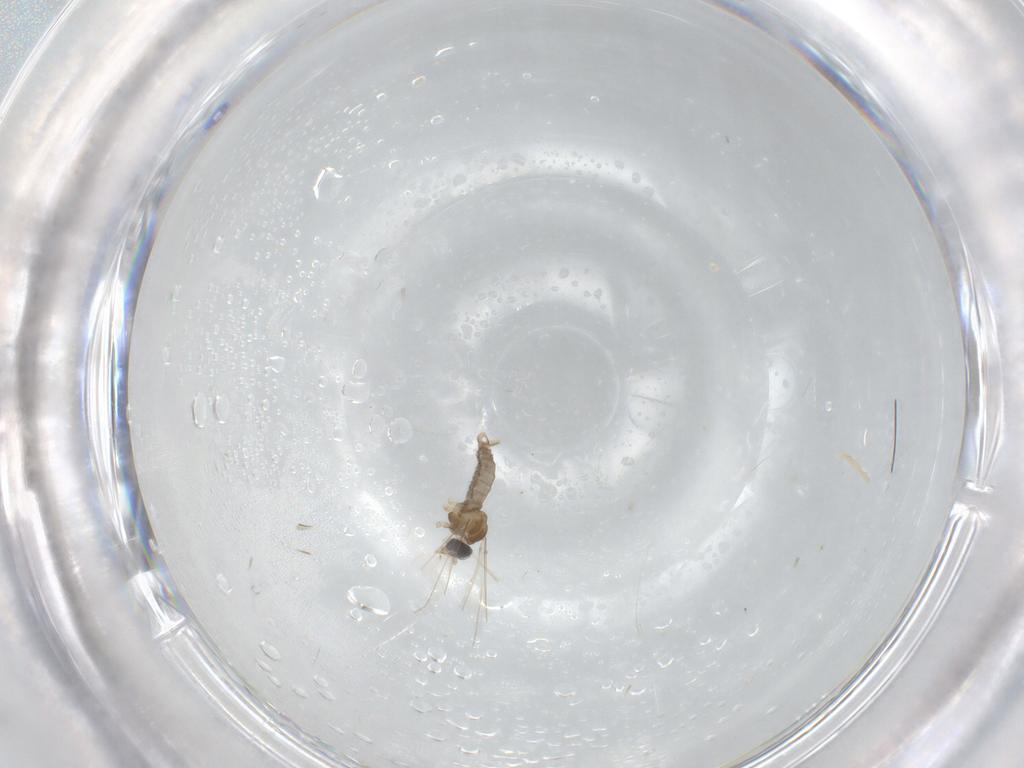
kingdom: Animalia
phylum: Arthropoda
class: Insecta
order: Diptera
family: Cecidomyiidae
